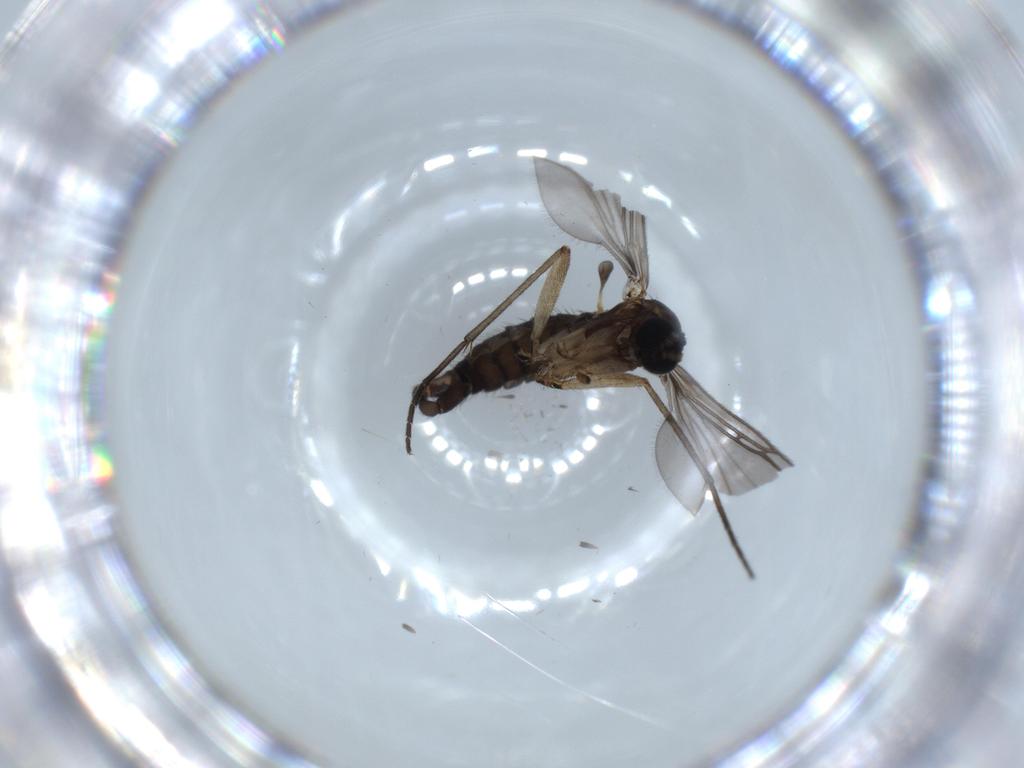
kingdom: Animalia
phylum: Arthropoda
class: Insecta
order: Diptera
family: Sciaridae
